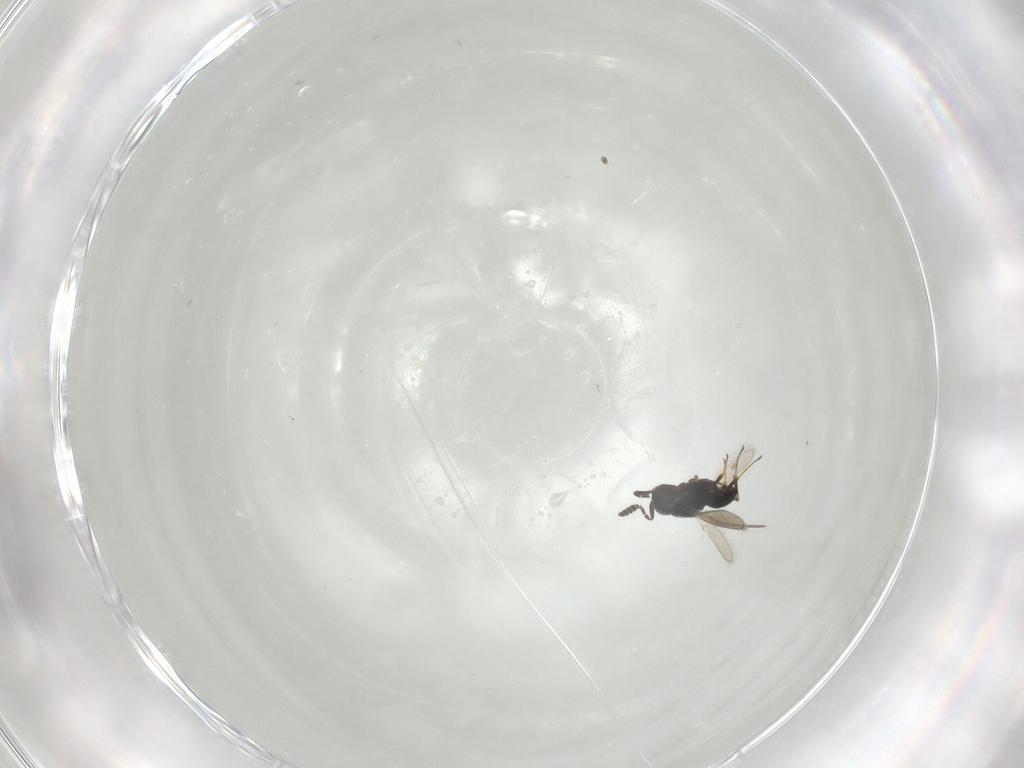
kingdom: Animalia
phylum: Arthropoda
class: Insecta
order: Hymenoptera
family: Scelionidae
